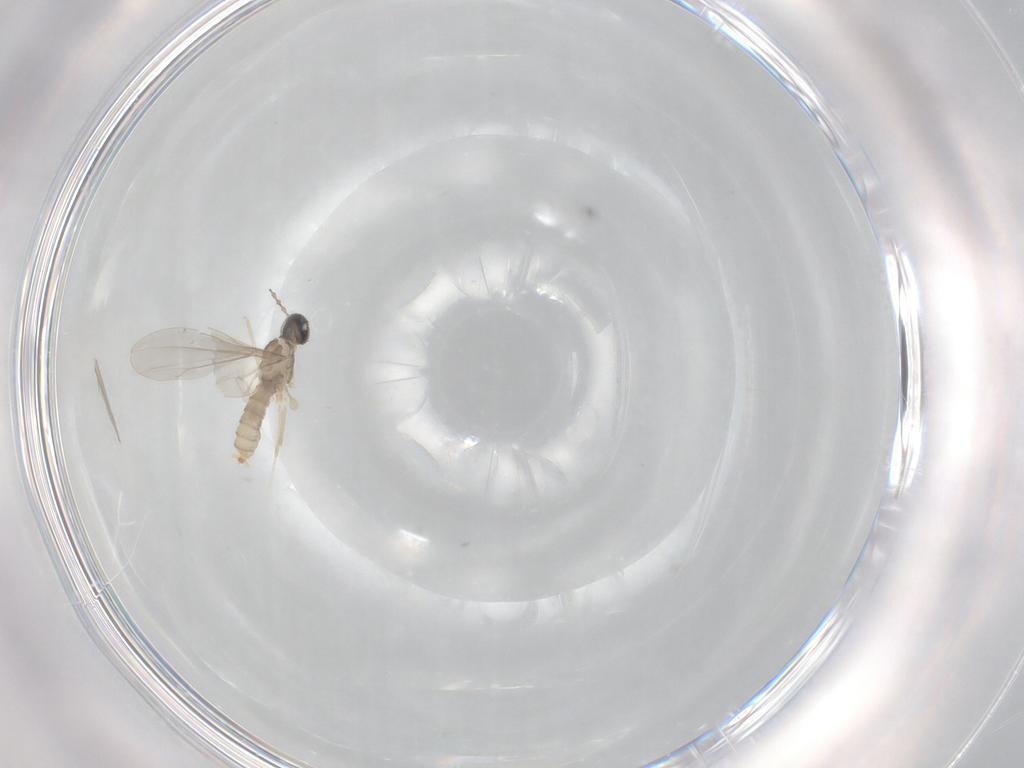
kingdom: Animalia
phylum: Arthropoda
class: Insecta
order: Diptera
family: Cecidomyiidae
